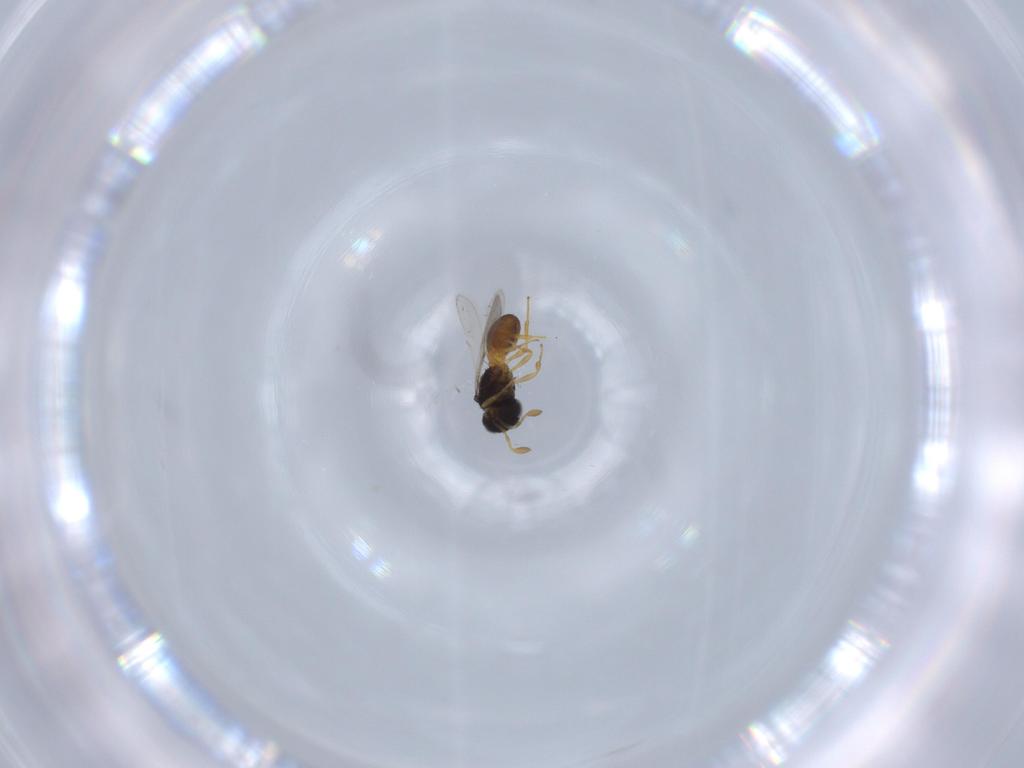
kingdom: Animalia
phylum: Arthropoda
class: Insecta
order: Hymenoptera
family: Scelionidae
